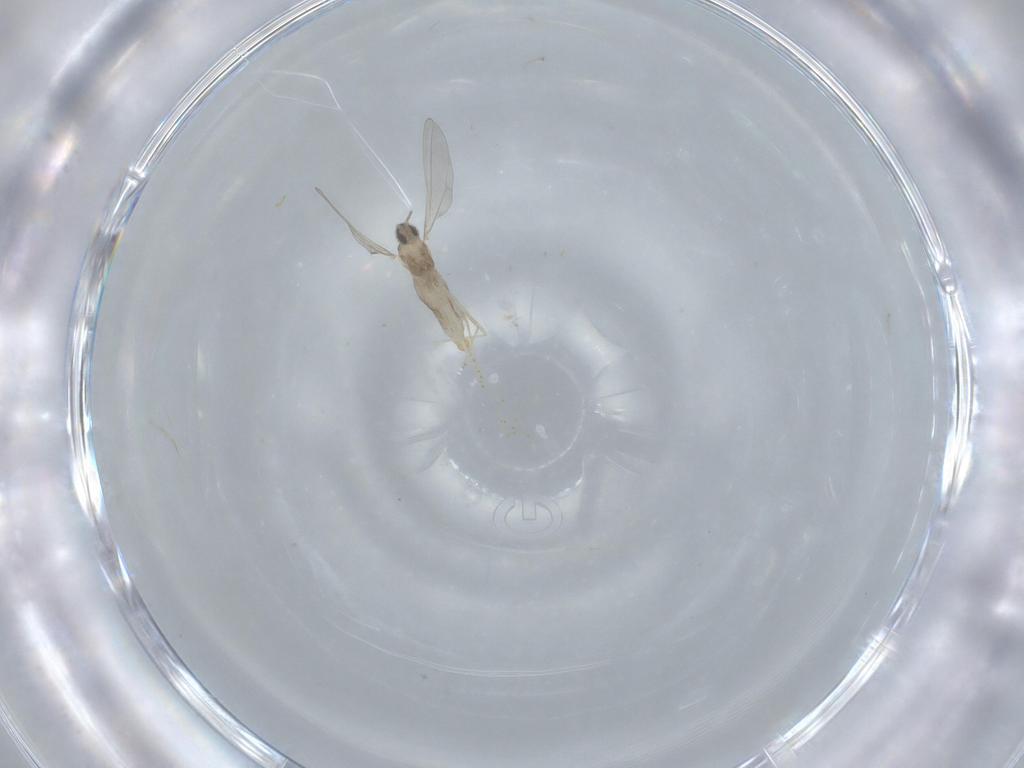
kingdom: Animalia
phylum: Arthropoda
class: Insecta
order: Diptera
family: Cecidomyiidae
